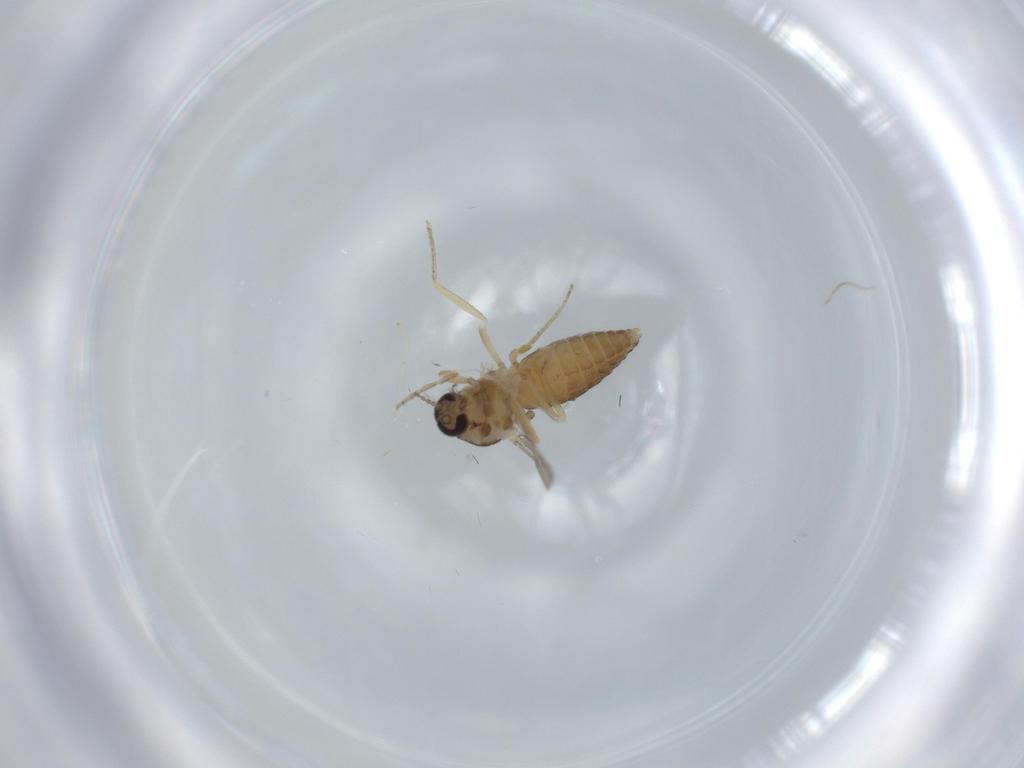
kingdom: Animalia
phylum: Arthropoda
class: Insecta
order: Diptera
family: Ceratopogonidae
